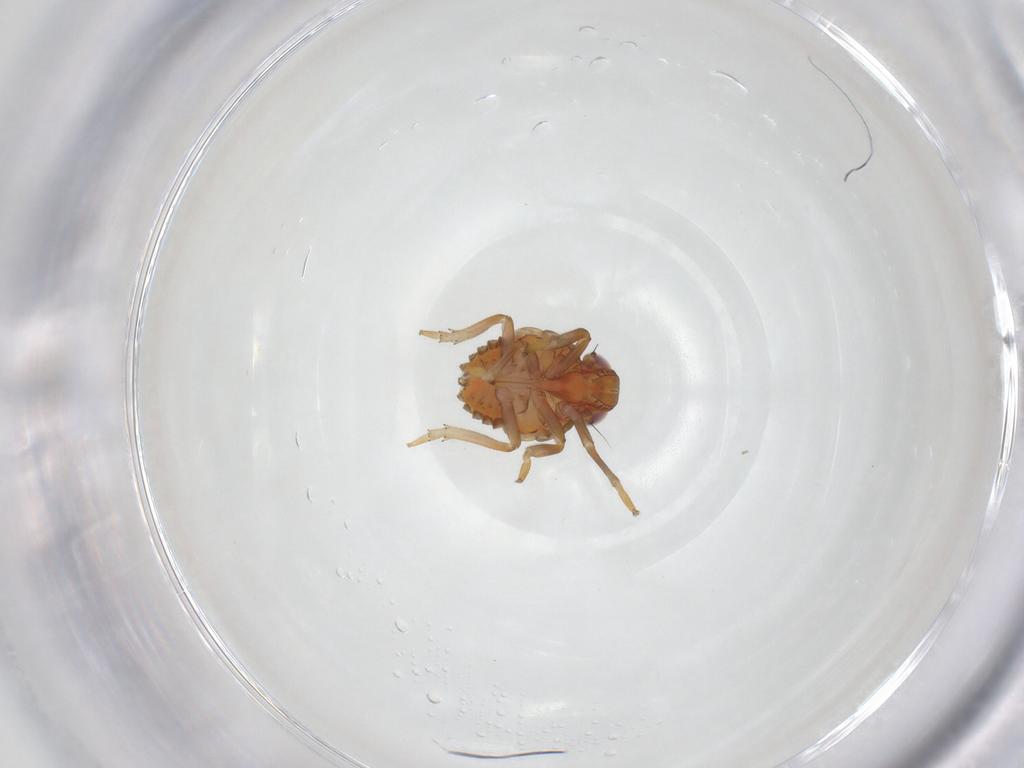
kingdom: Animalia
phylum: Arthropoda
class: Insecta
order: Hemiptera
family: Issidae
